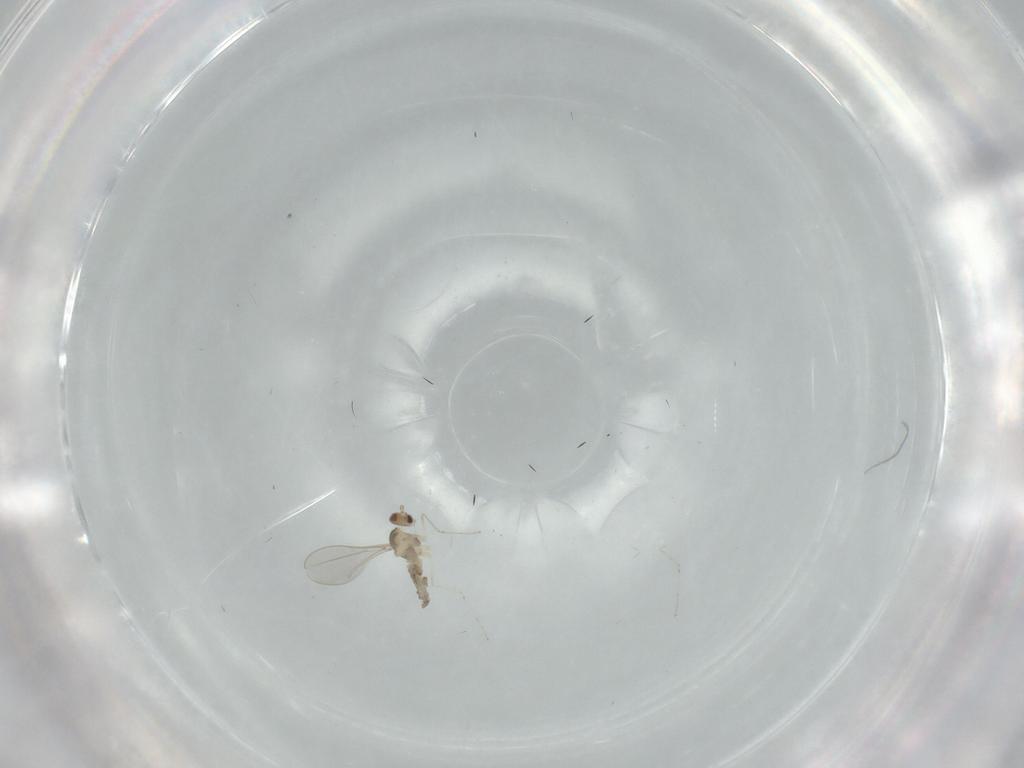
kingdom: Animalia
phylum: Arthropoda
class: Insecta
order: Diptera
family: Cecidomyiidae
